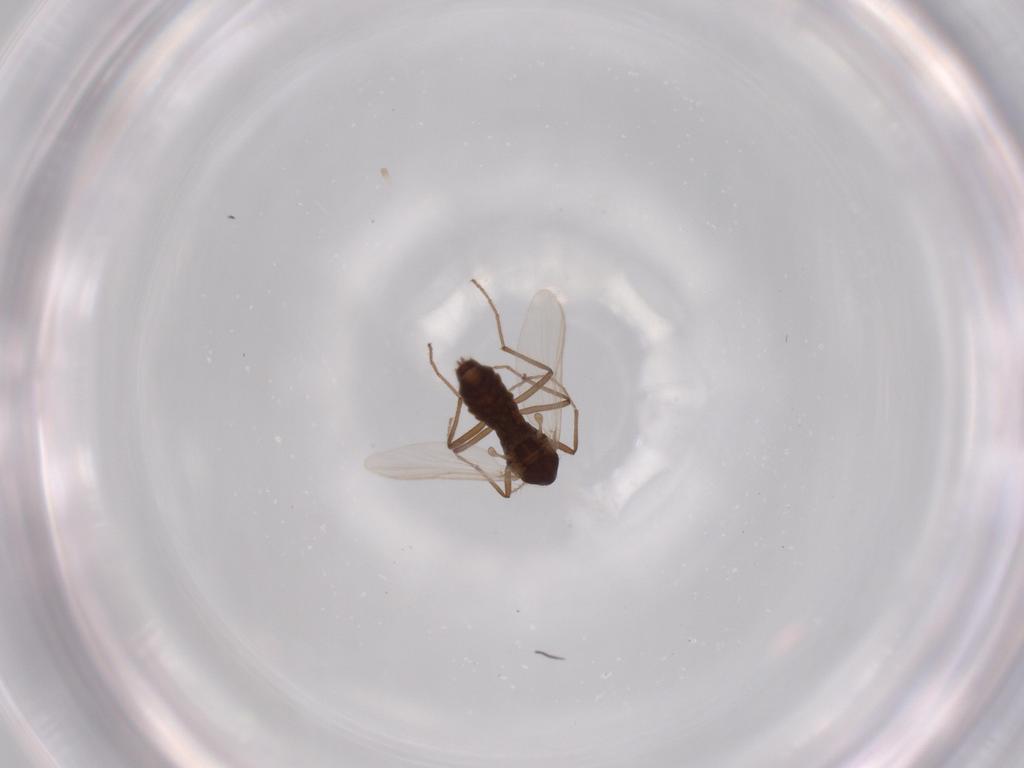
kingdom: Animalia
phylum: Arthropoda
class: Insecta
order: Diptera
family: Chironomidae
